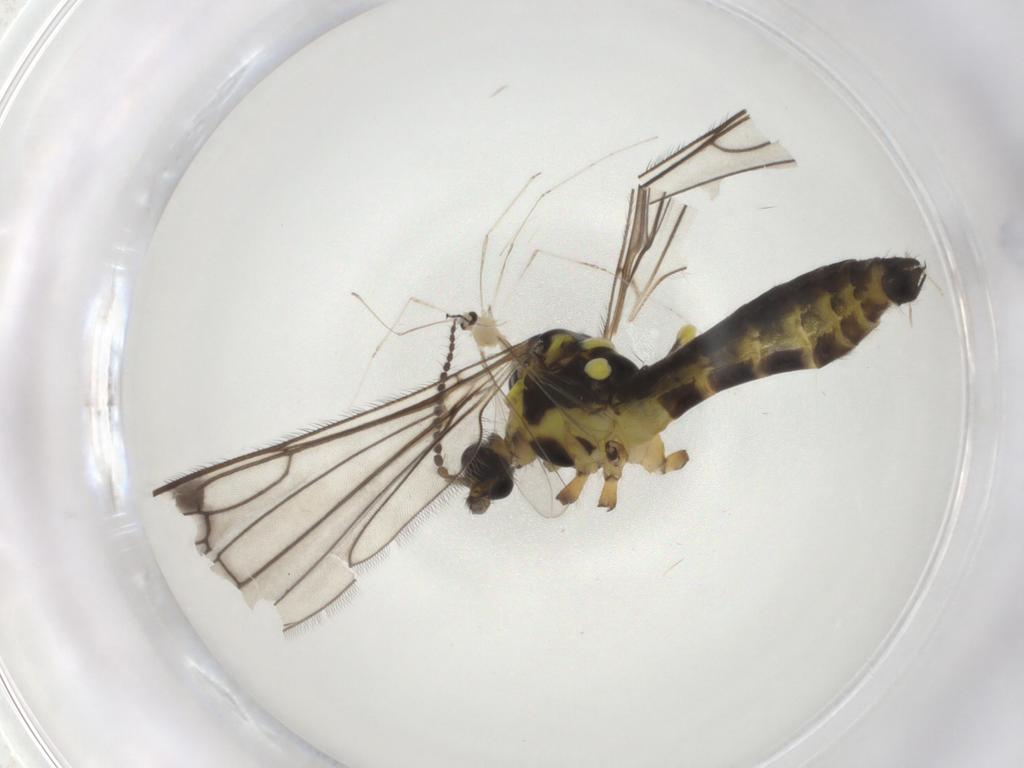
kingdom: Animalia
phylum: Arthropoda
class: Insecta
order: Diptera
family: Limoniidae
